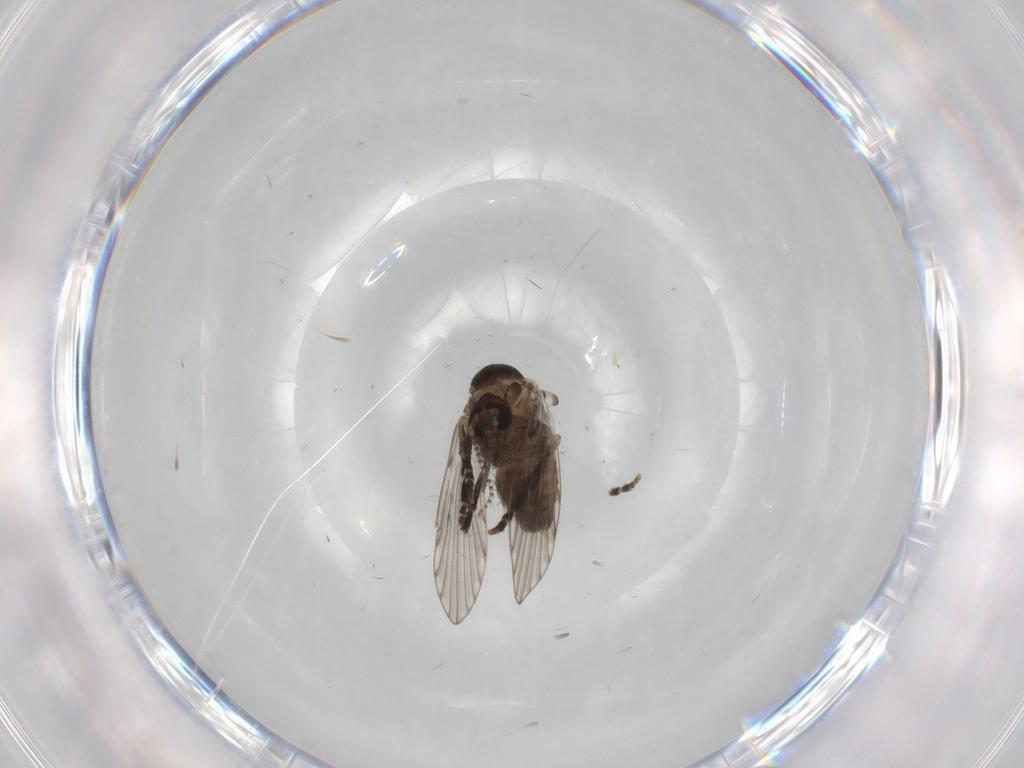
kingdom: Animalia
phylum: Arthropoda
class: Insecta
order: Diptera
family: Psychodidae
